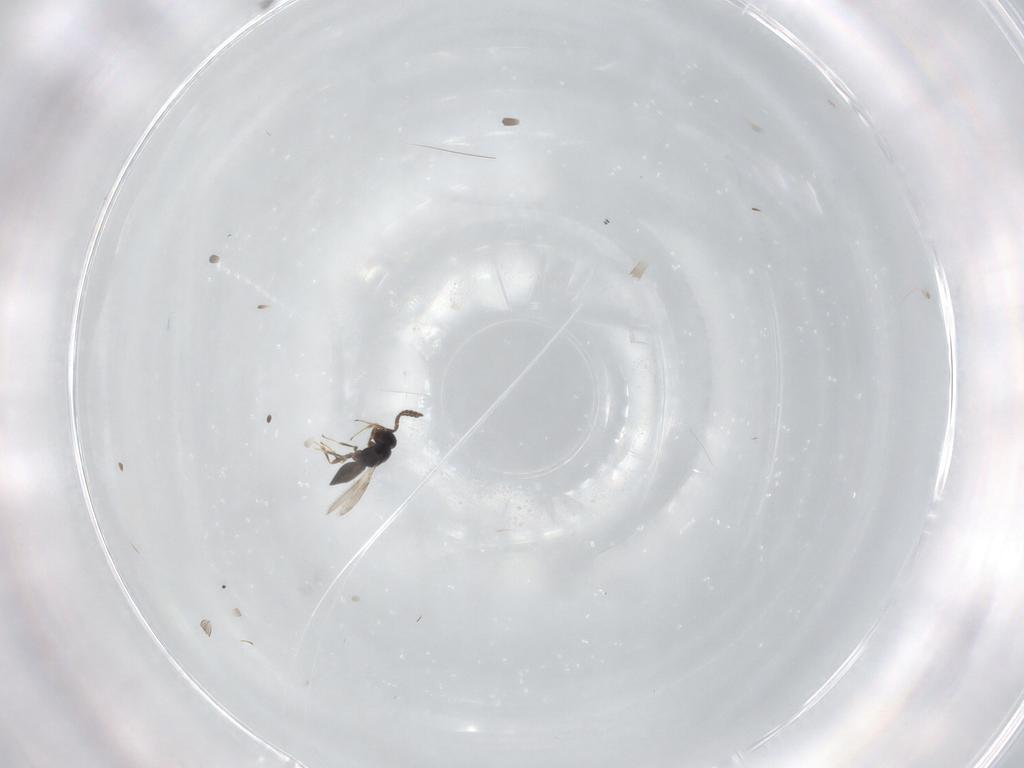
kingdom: Animalia
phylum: Arthropoda
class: Insecta
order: Hymenoptera
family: Scelionidae
